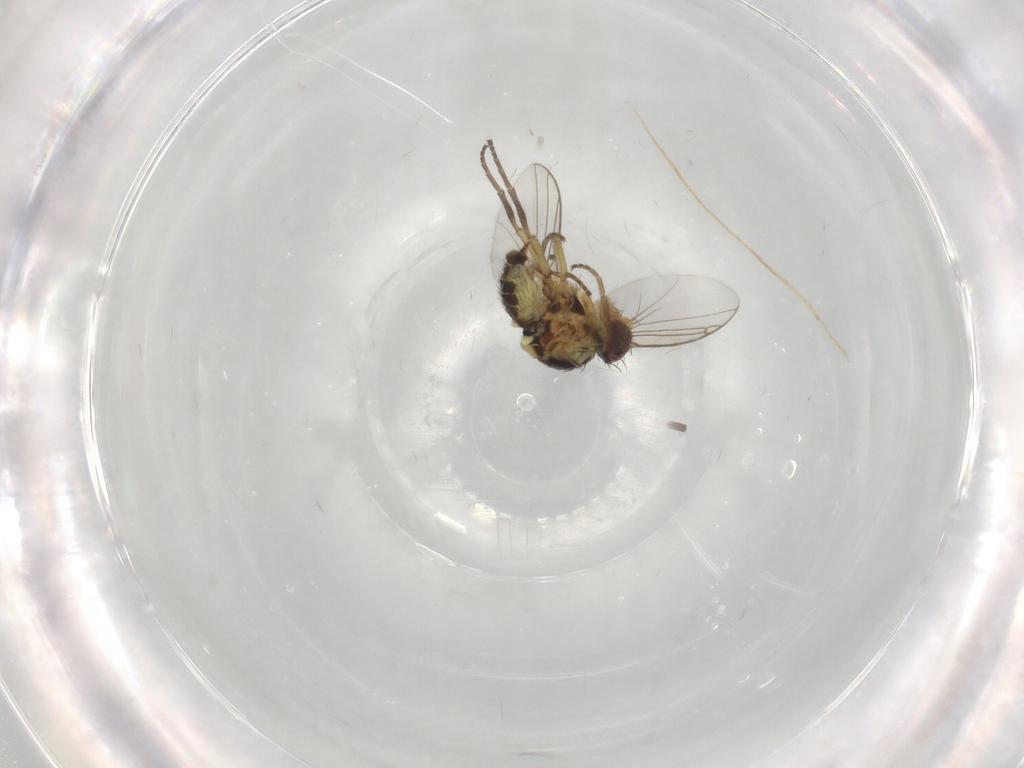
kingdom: Animalia
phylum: Arthropoda
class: Insecta
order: Diptera
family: Agromyzidae
